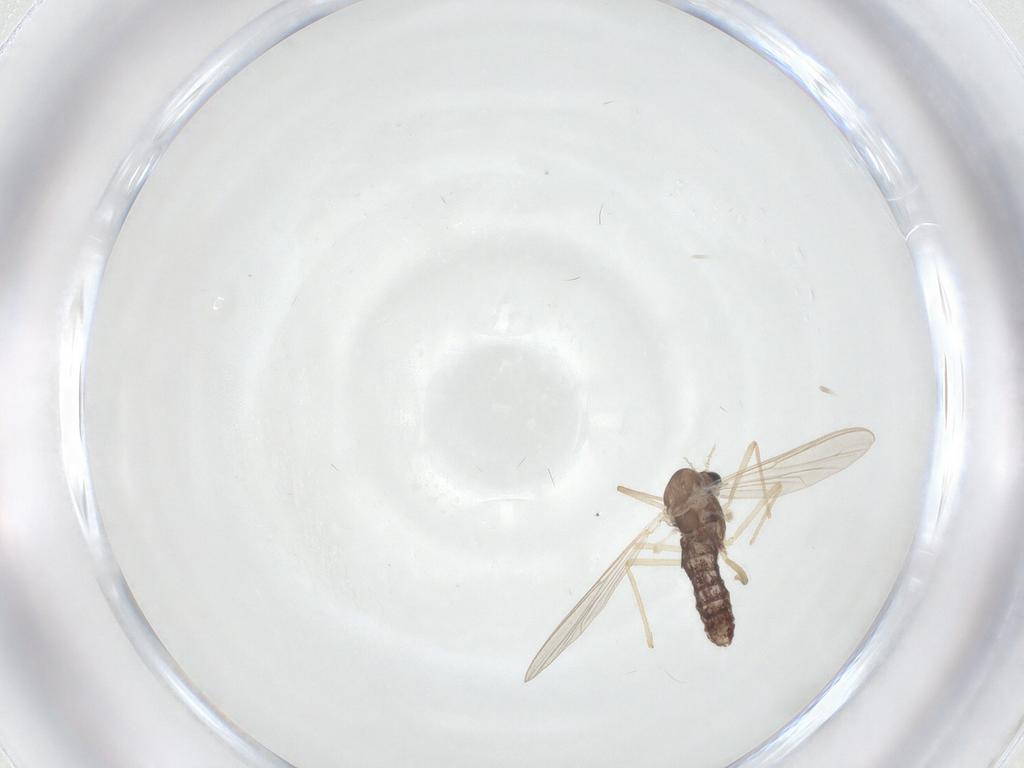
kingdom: Animalia
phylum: Arthropoda
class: Insecta
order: Diptera
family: Chironomidae
